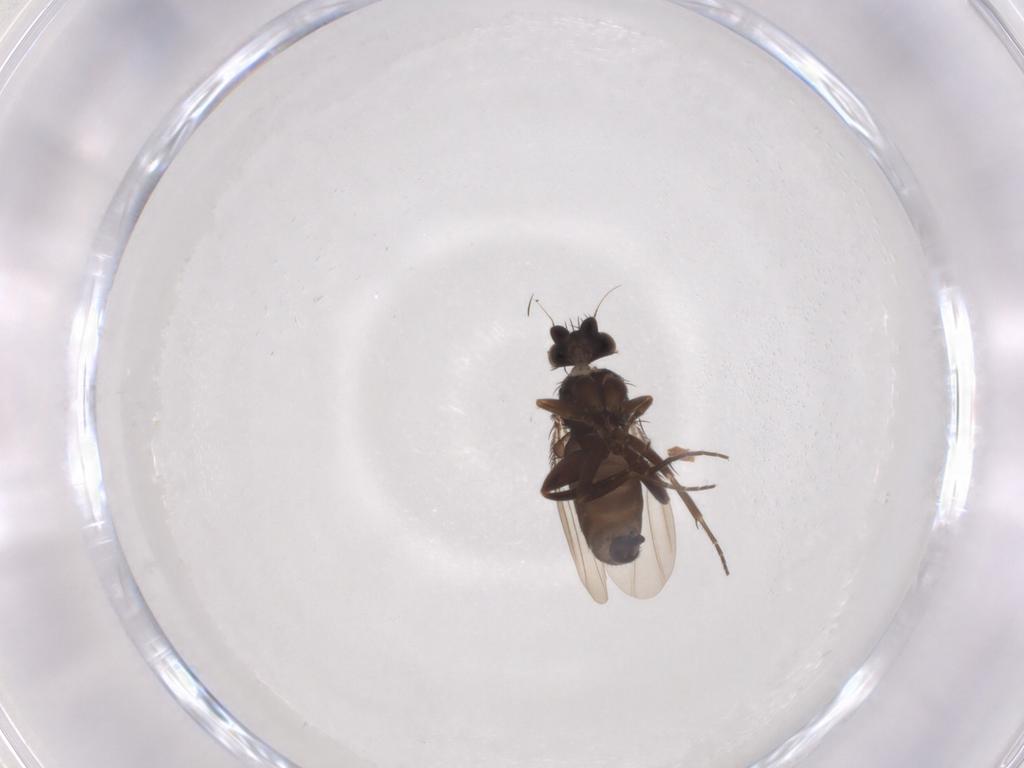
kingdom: Animalia
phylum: Arthropoda
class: Insecta
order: Diptera
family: Phoridae
